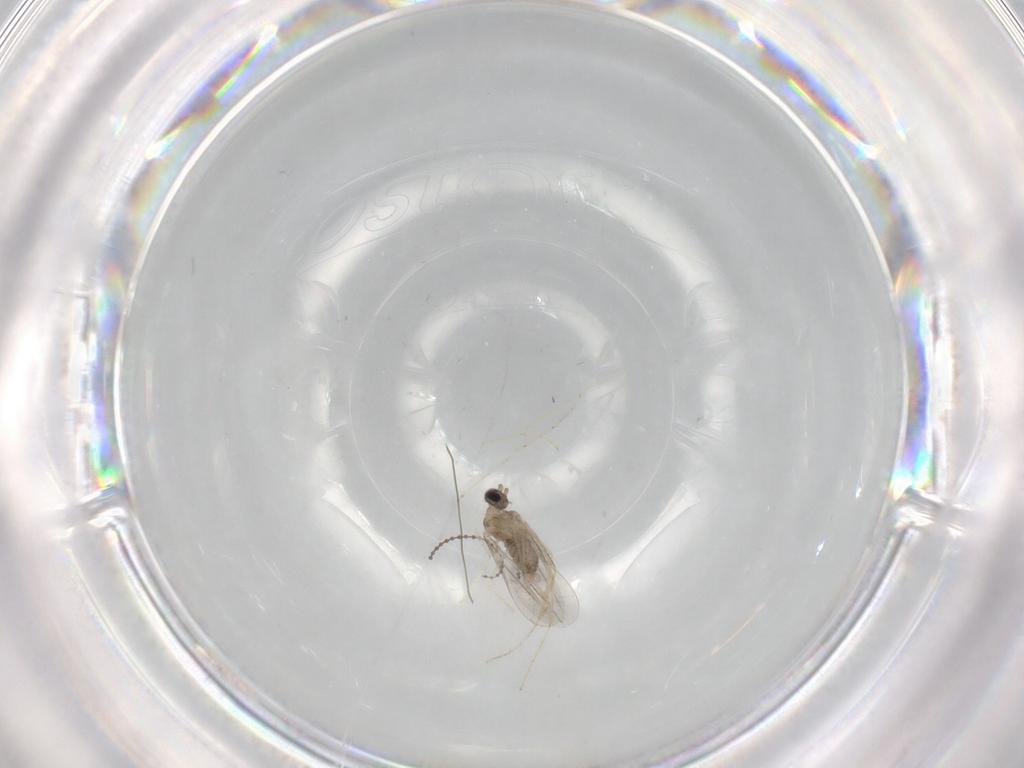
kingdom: Animalia
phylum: Arthropoda
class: Insecta
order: Diptera
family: Cecidomyiidae
